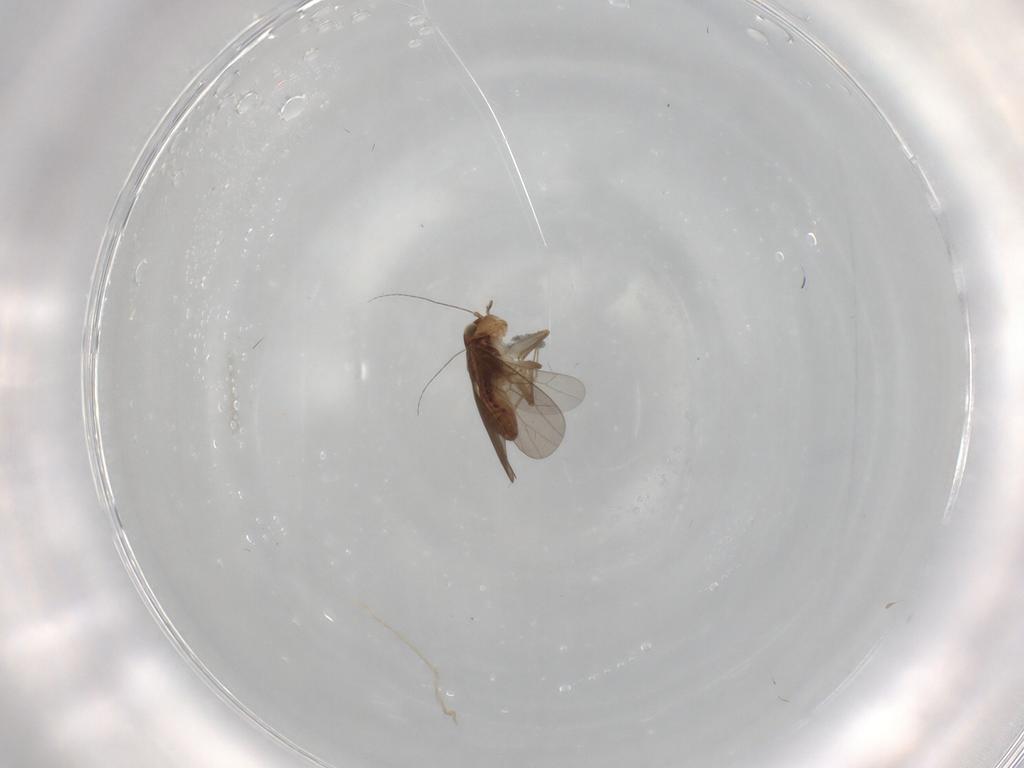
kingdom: Animalia
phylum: Arthropoda
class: Insecta
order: Psocodea
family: Lepidopsocidae
